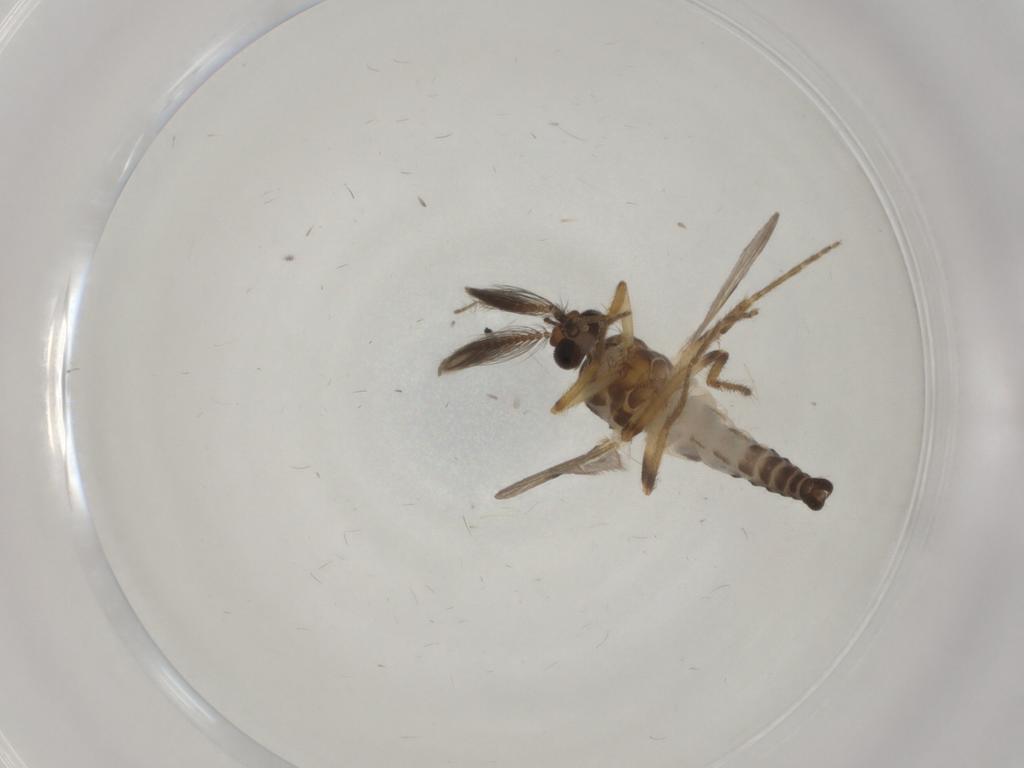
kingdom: Animalia
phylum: Arthropoda
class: Insecta
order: Diptera
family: Ceratopogonidae
